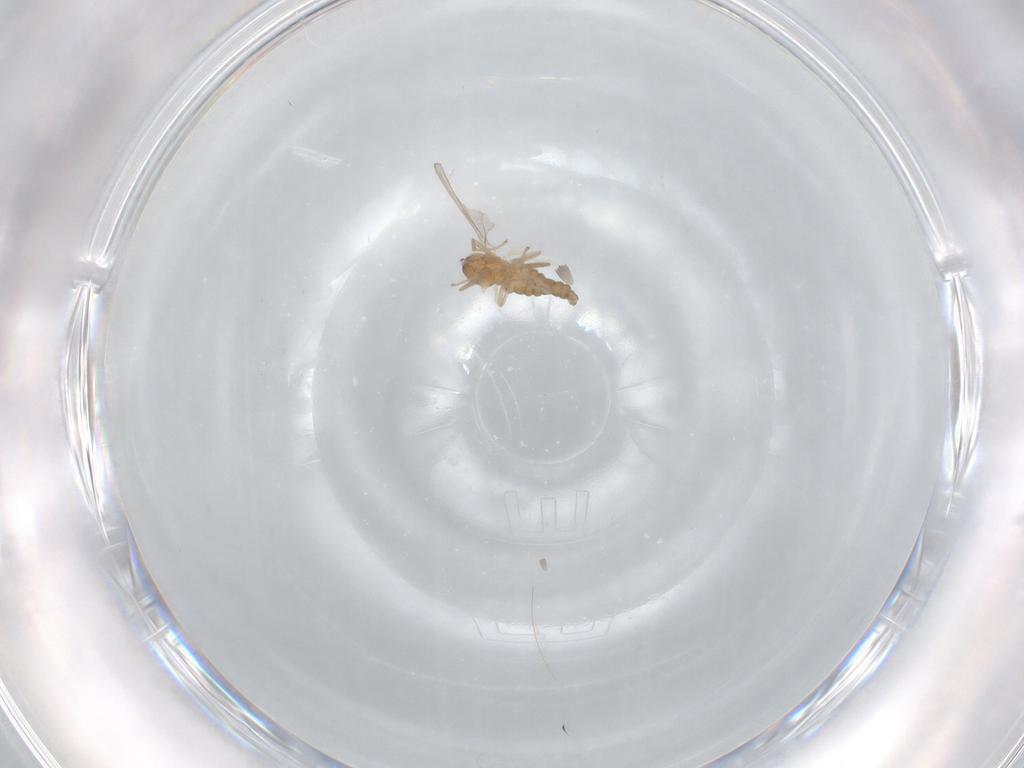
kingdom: Animalia
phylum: Arthropoda
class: Insecta
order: Diptera
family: Cecidomyiidae
